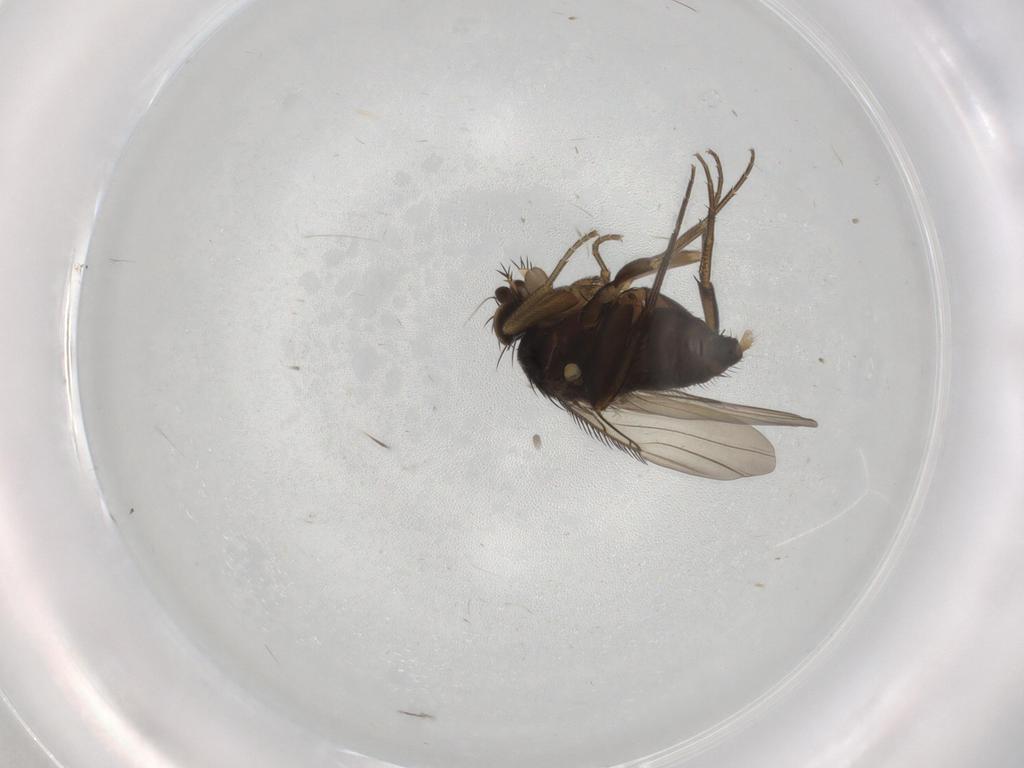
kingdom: Animalia
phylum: Arthropoda
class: Insecta
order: Diptera
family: Phoridae
